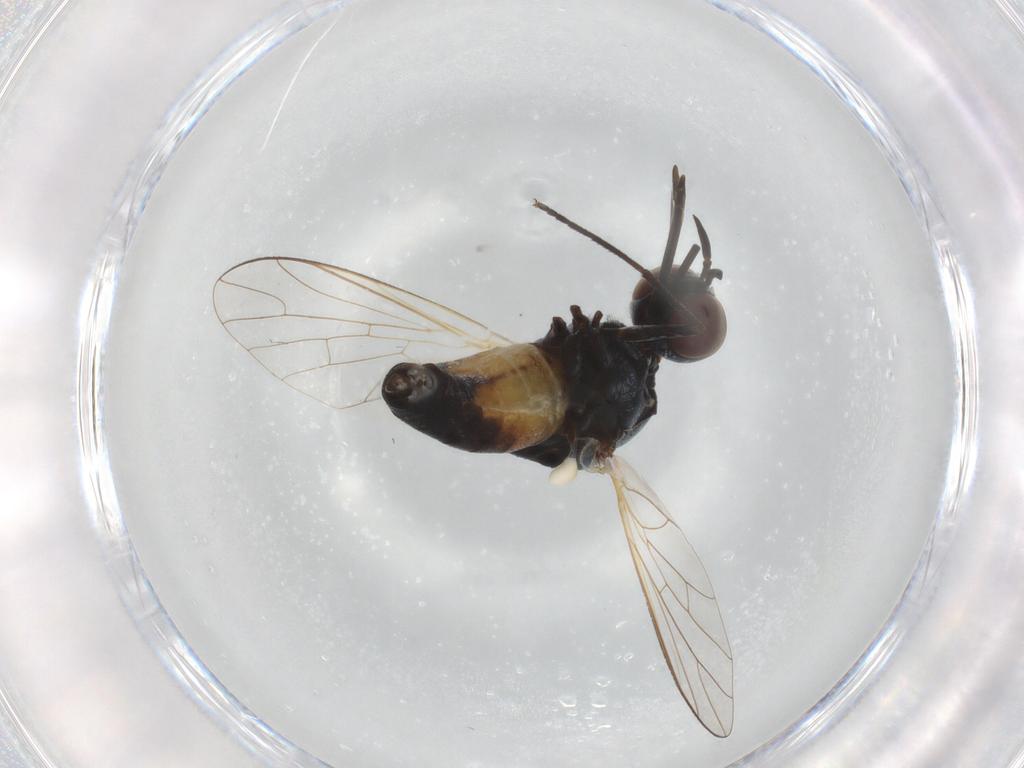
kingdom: Animalia
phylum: Arthropoda
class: Insecta
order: Diptera
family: Bombyliidae
